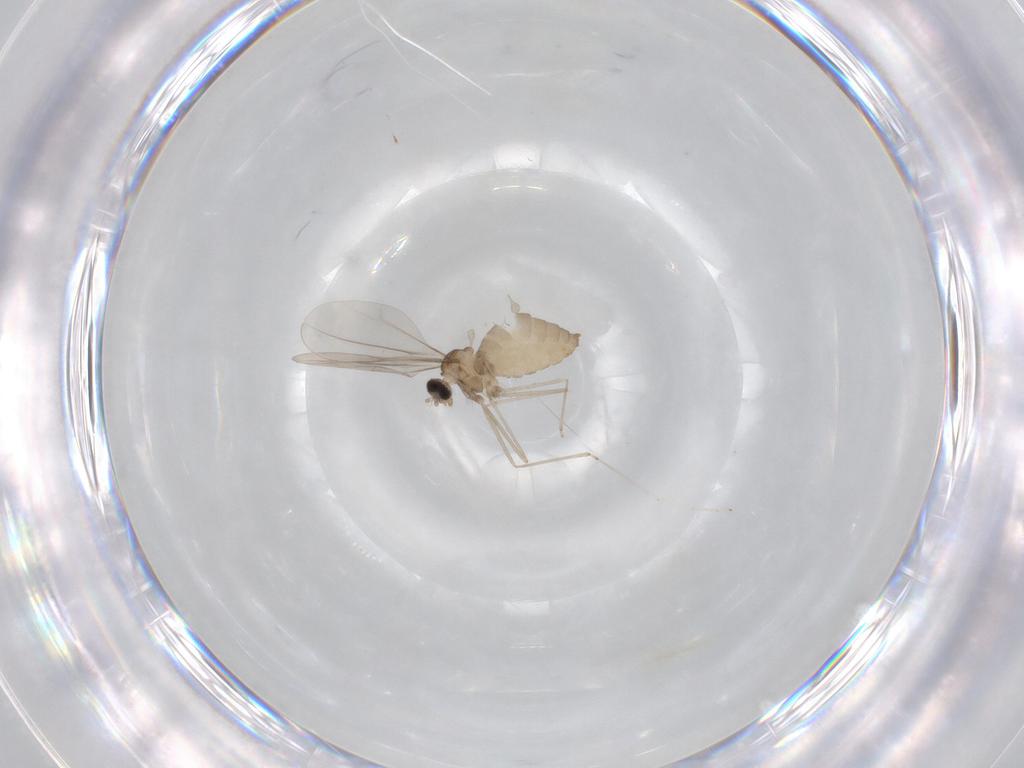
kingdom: Animalia
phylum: Arthropoda
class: Insecta
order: Diptera
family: Cecidomyiidae
